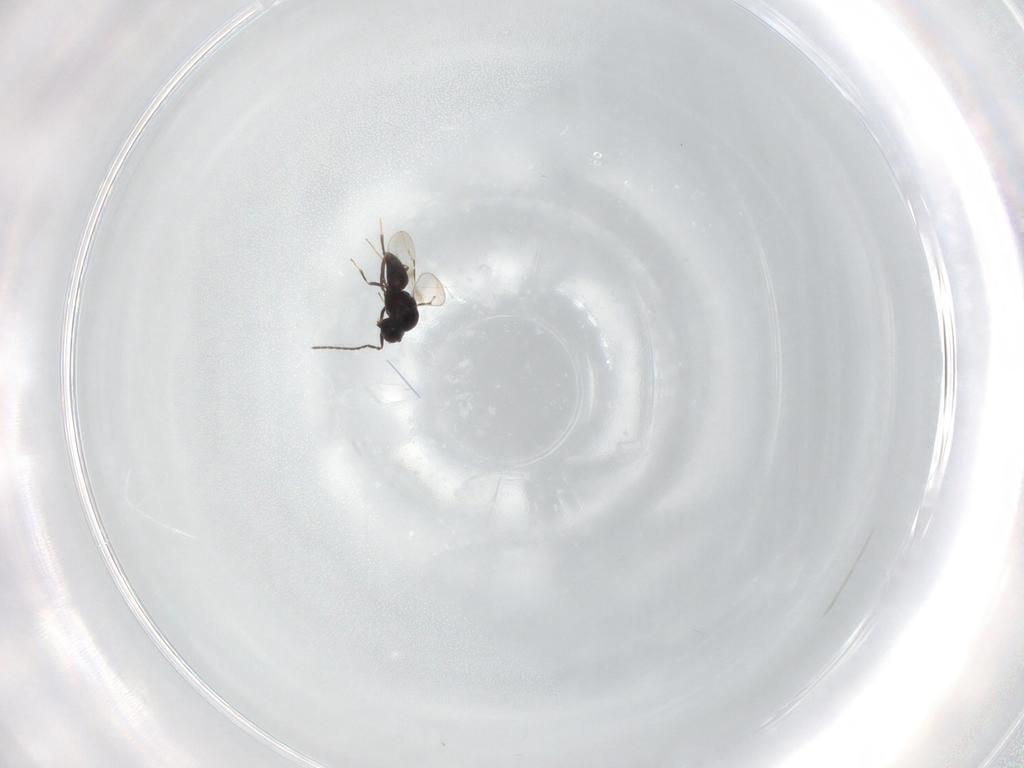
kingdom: Animalia
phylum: Arthropoda
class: Insecta
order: Hymenoptera
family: Ceraphronidae
